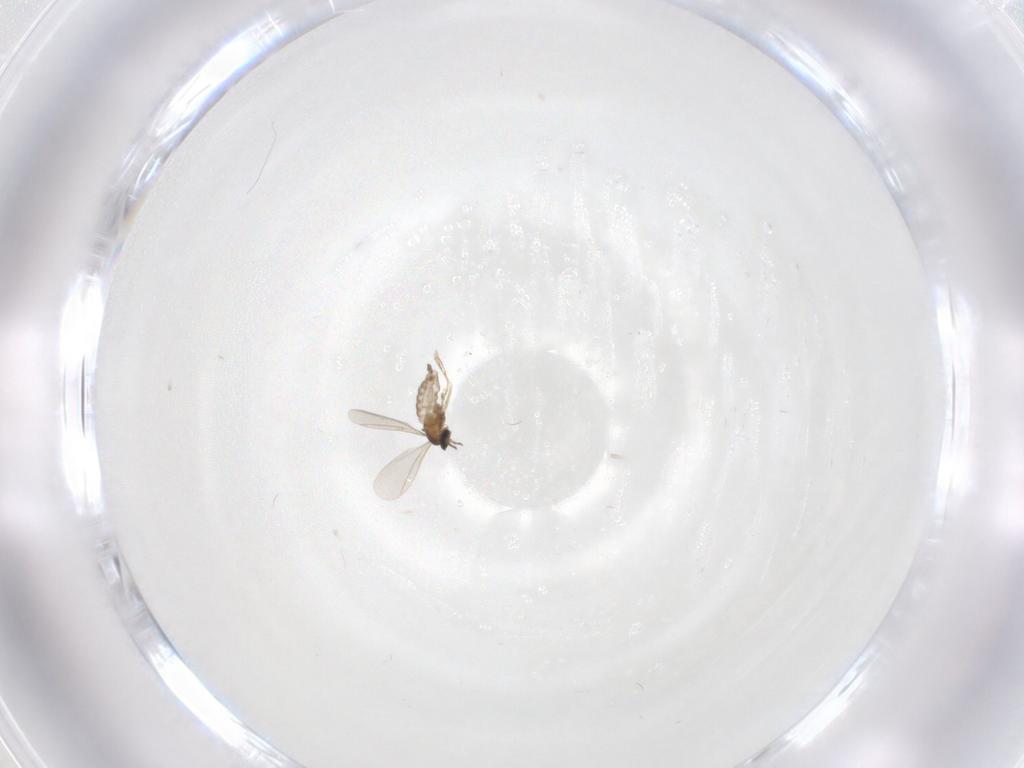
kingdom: Animalia
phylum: Arthropoda
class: Insecta
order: Diptera
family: Cecidomyiidae
